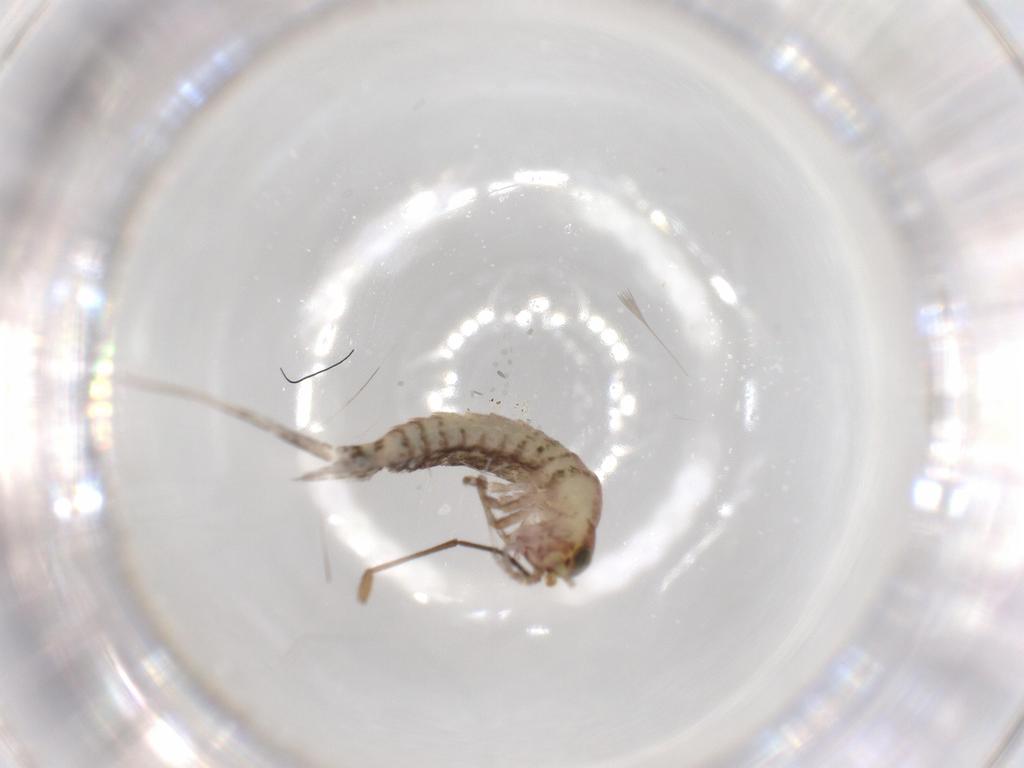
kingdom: Animalia
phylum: Arthropoda
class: Insecta
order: Archaeognatha
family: Machilidae
